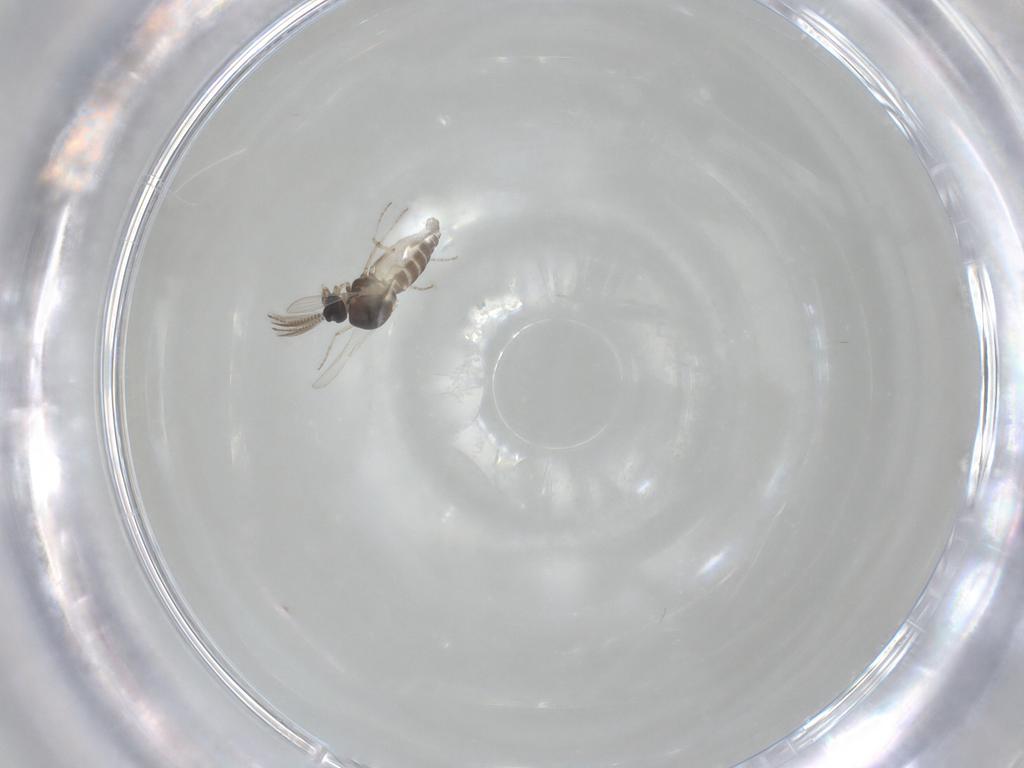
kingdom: Animalia
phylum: Arthropoda
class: Insecta
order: Diptera
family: Ceratopogonidae
